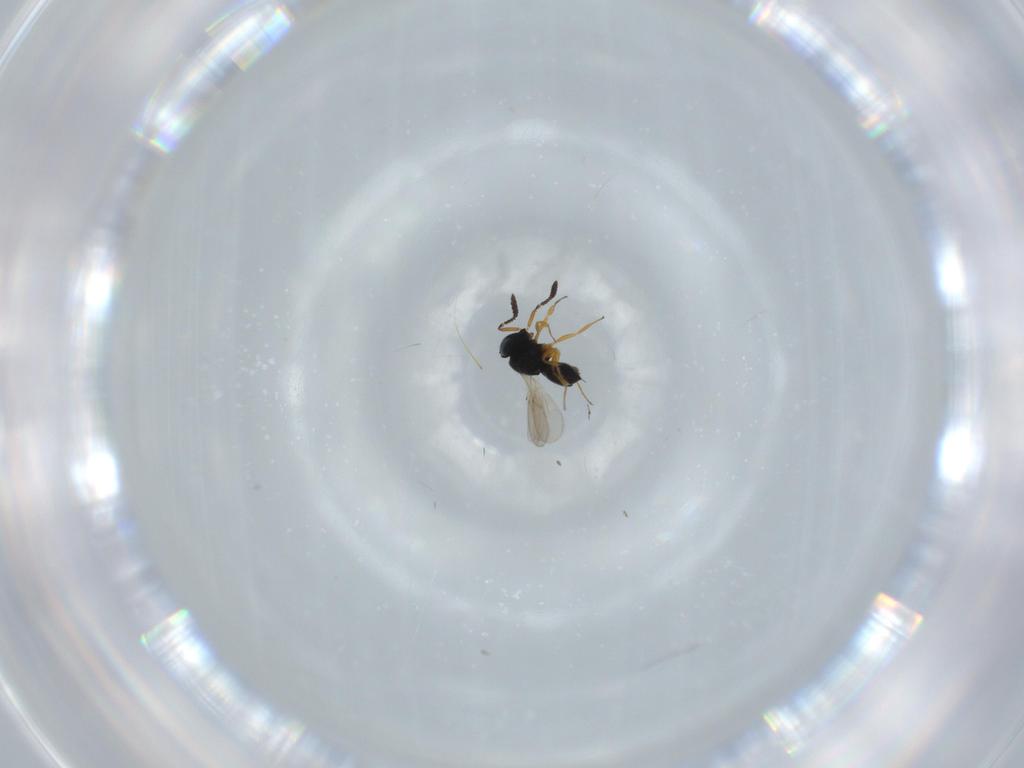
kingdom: Animalia
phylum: Arthropoda
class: Insecta
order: Hymenoptera
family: Scelionidae
